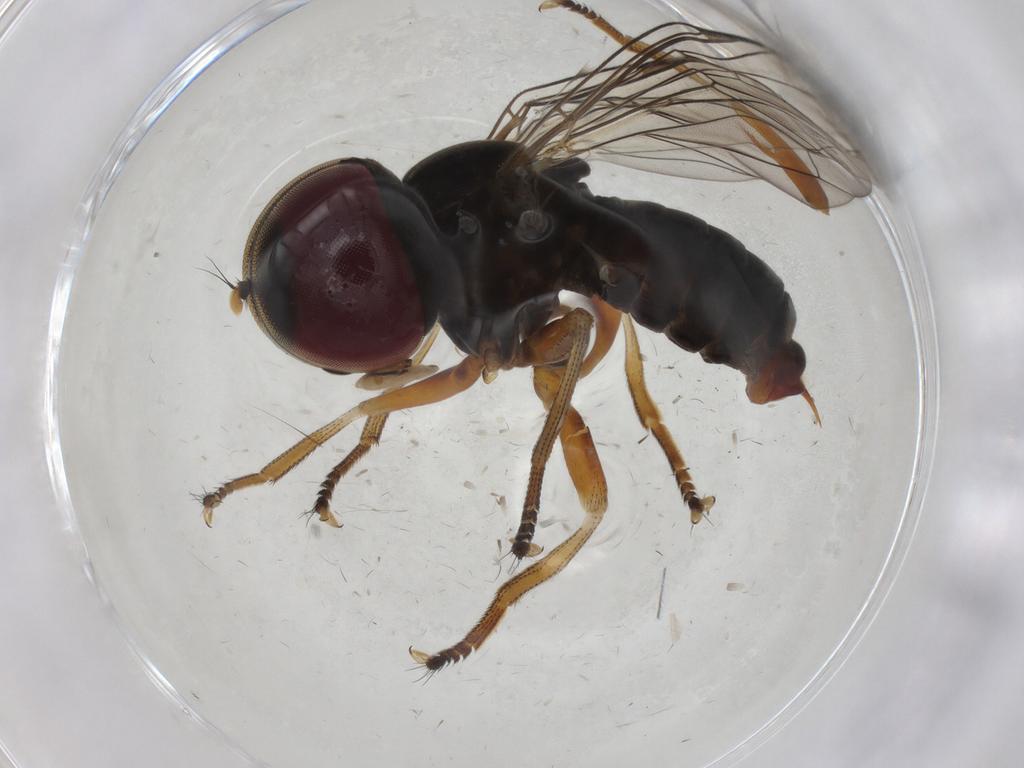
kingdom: Animalia
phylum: Arthropoda
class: Insecta
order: Diptera
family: Pipunculidae
